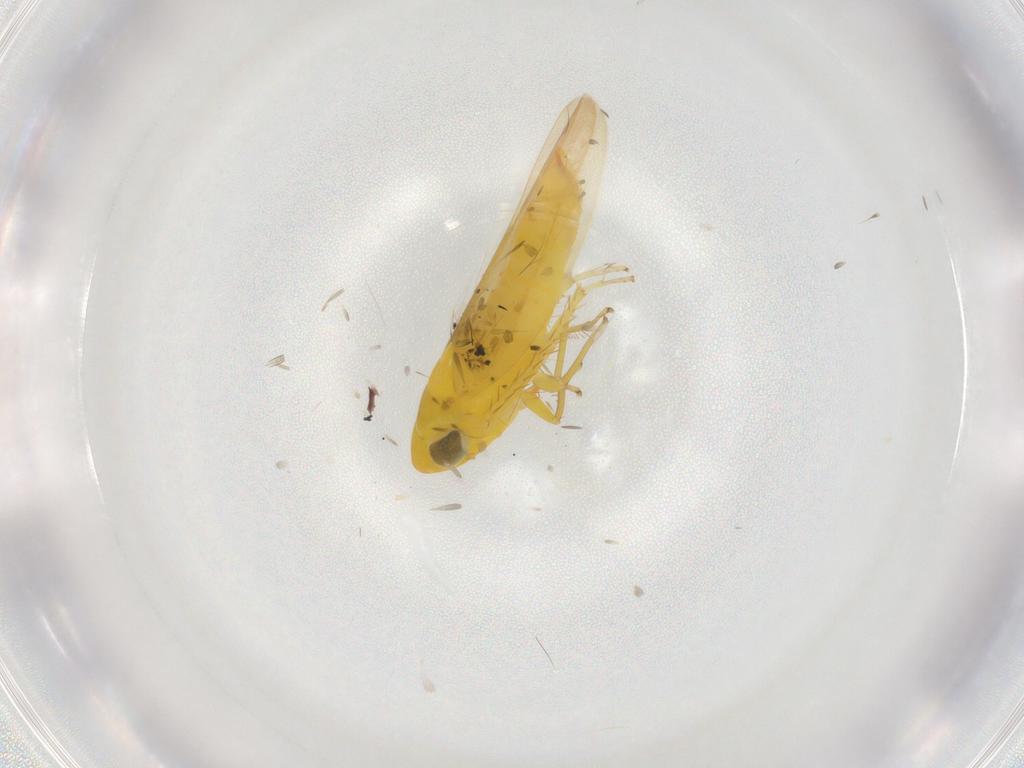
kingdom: Animalia
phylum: Arthropoda
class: Insecta
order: Hemiptera
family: Cicadellidae
